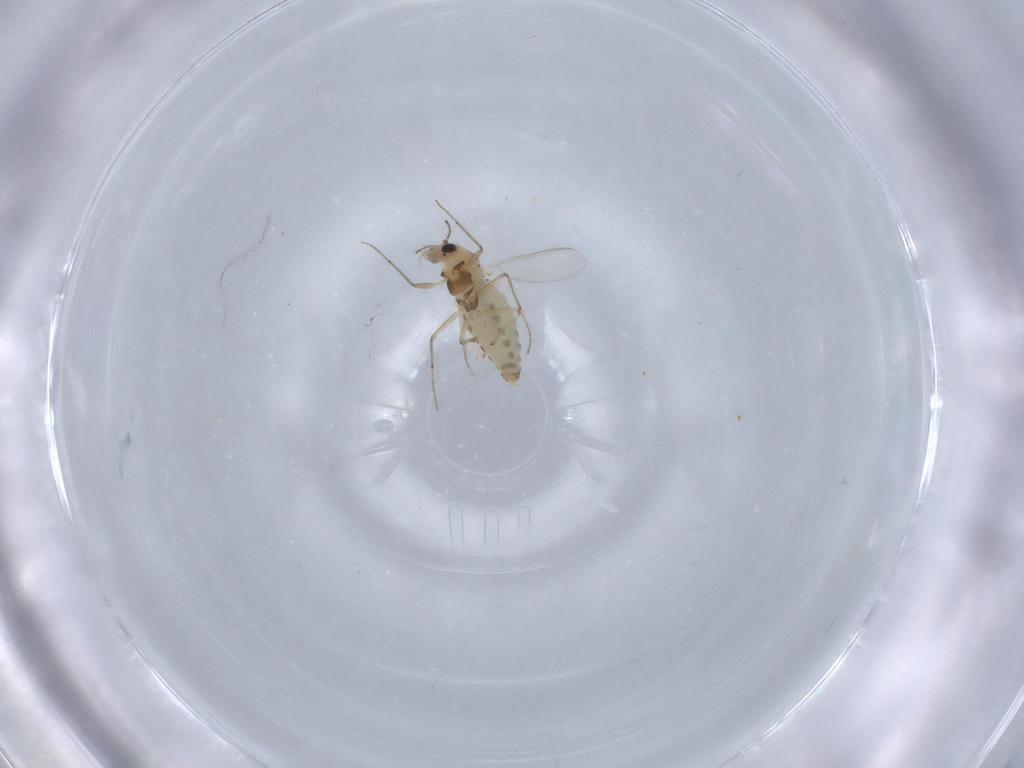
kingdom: Animalia
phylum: Arthropoda
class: Insecta
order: Diptera
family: Chironomidae
